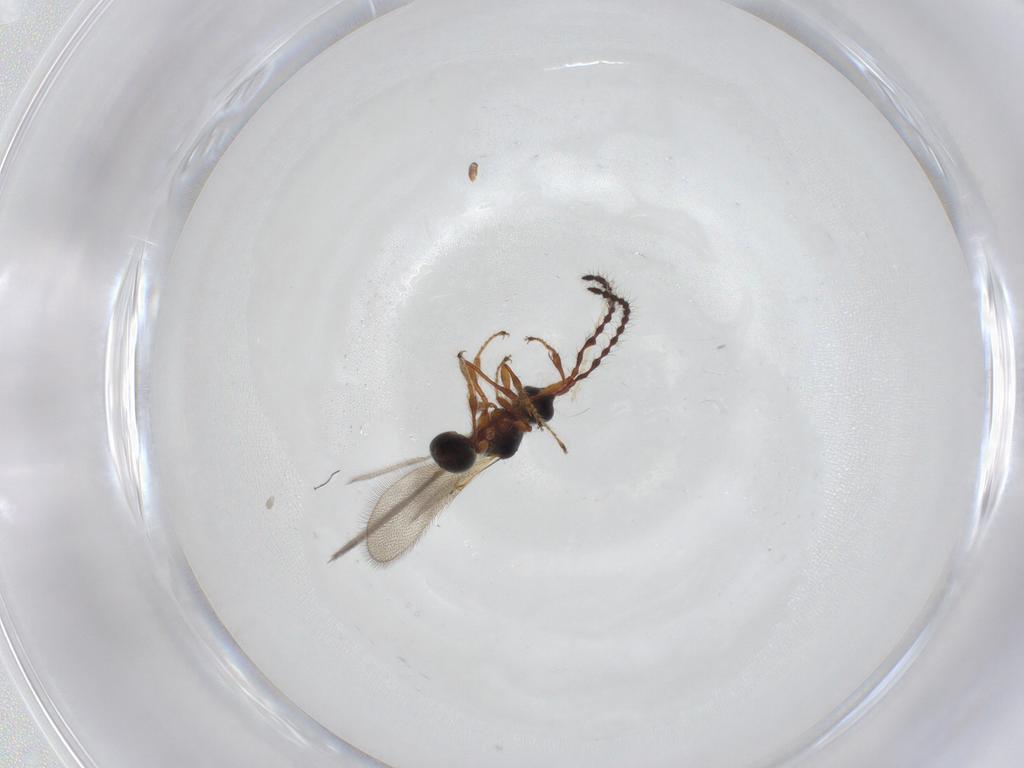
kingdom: Animalia
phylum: Arthropoda
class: Insecta
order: Hymenoptera
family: Diapriidae
